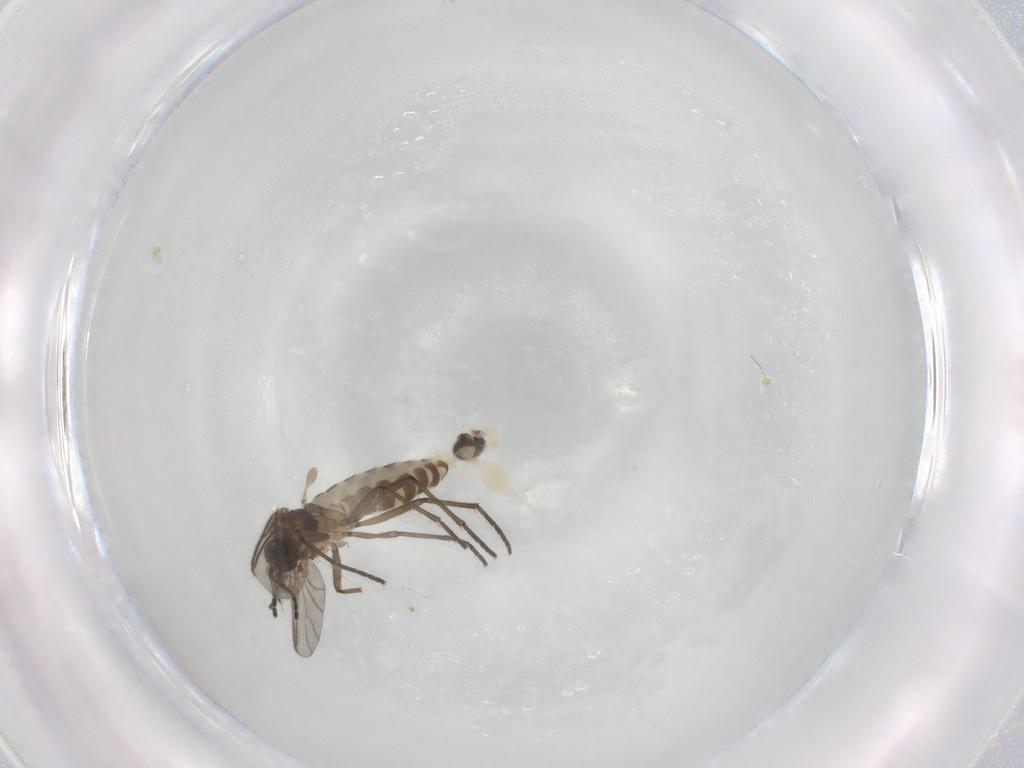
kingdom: Animalia
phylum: Arthropoda
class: Insecta
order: Diptera
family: Sciaridae
